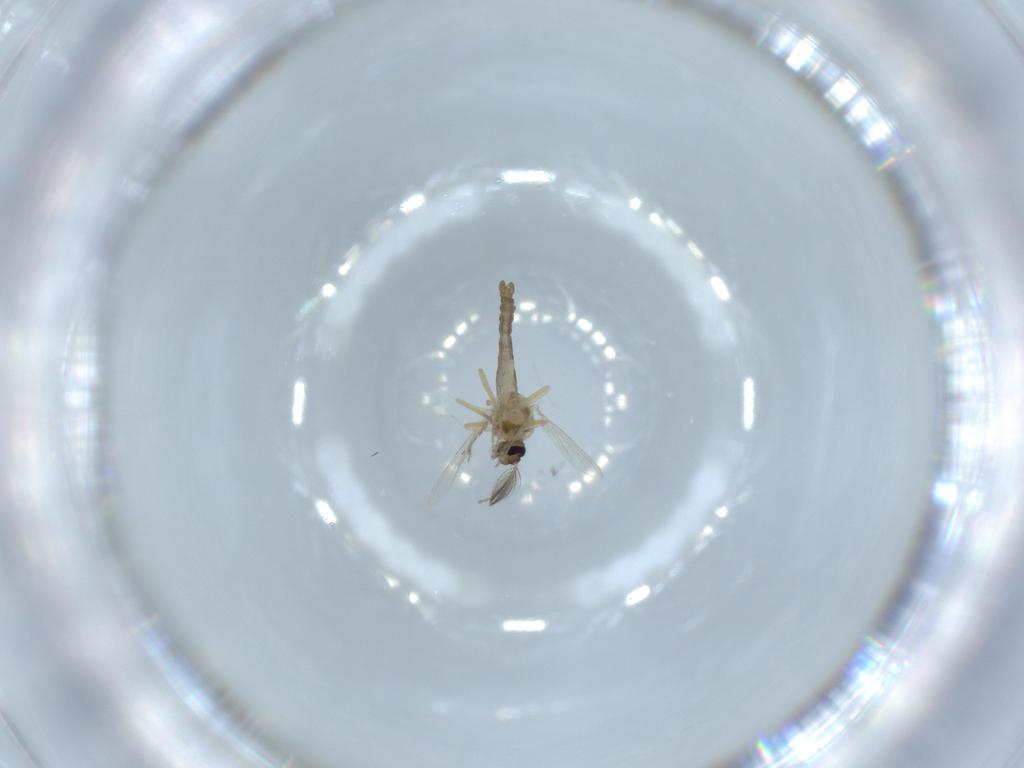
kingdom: Animalia
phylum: Arthropoda
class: Insecta
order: Diptera
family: Ceratopogonidae
